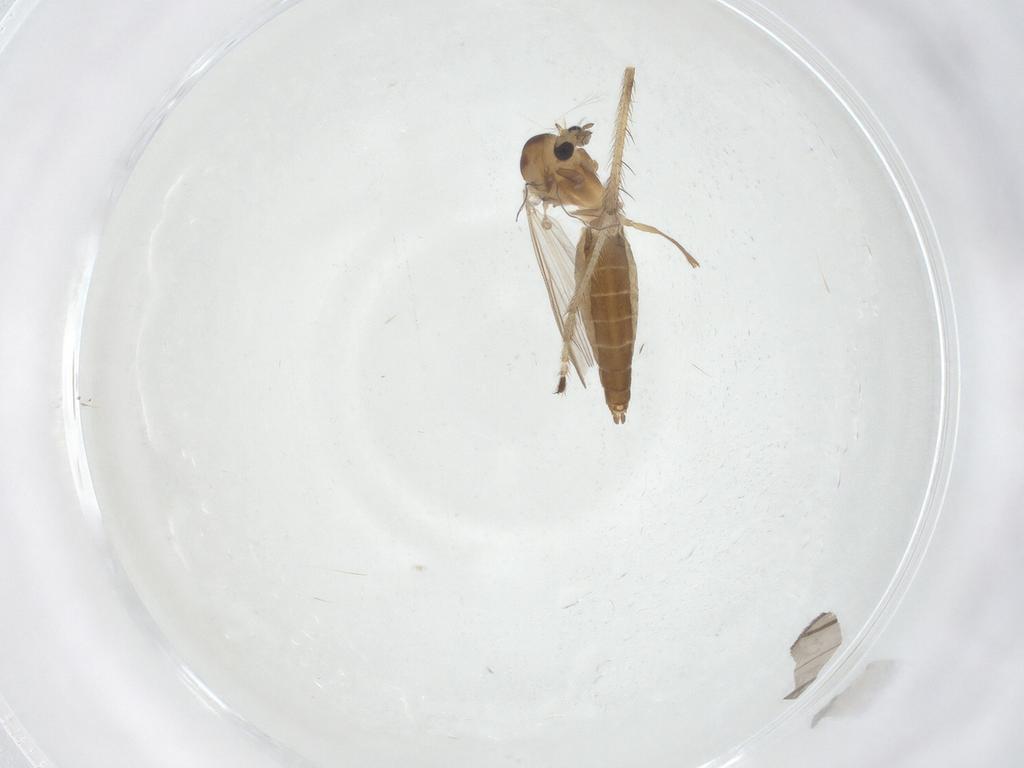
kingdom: Animalia
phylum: Arthropoda
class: Insecta
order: Diptera
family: Chironomidae
